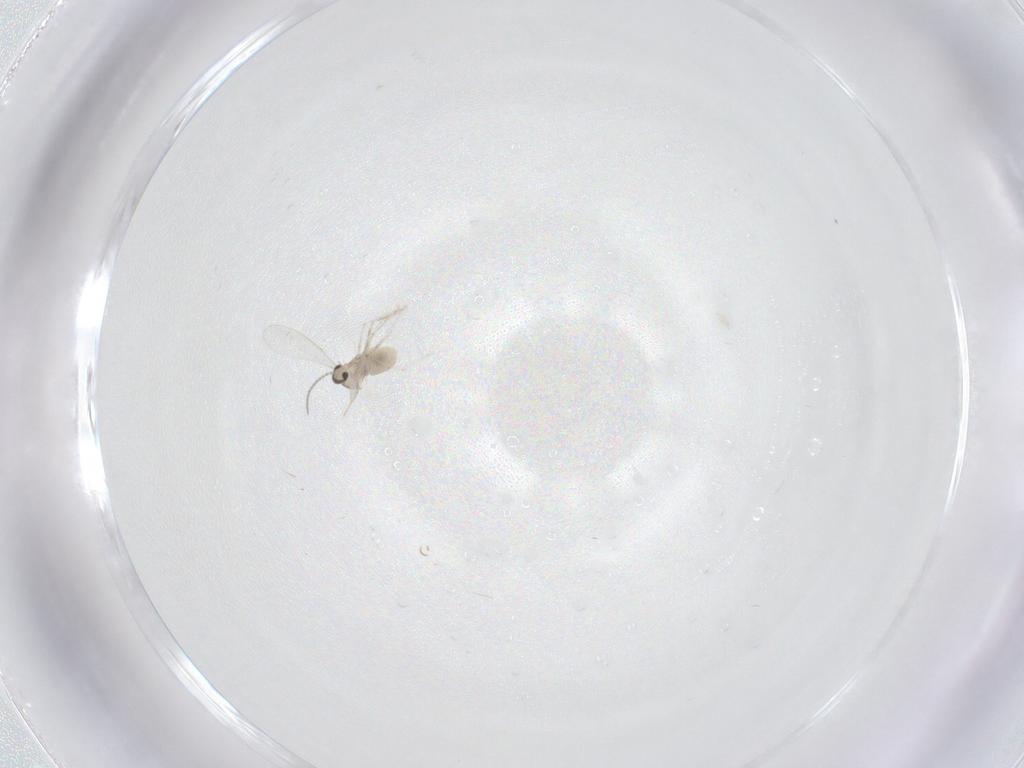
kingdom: Animalia
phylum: Arthropoda
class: Insecta
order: Diptera
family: Cecidomyiidae
